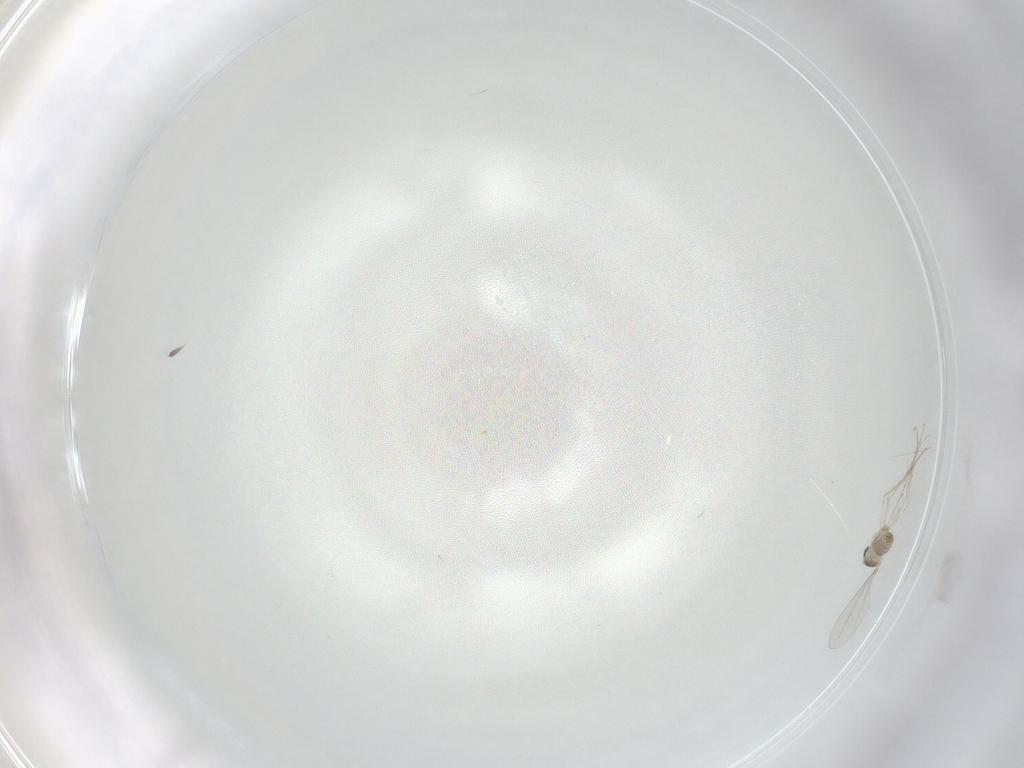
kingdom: Animalia
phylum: Arthropoda
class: Insecta
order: Diptera
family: Cecidomyiidae
